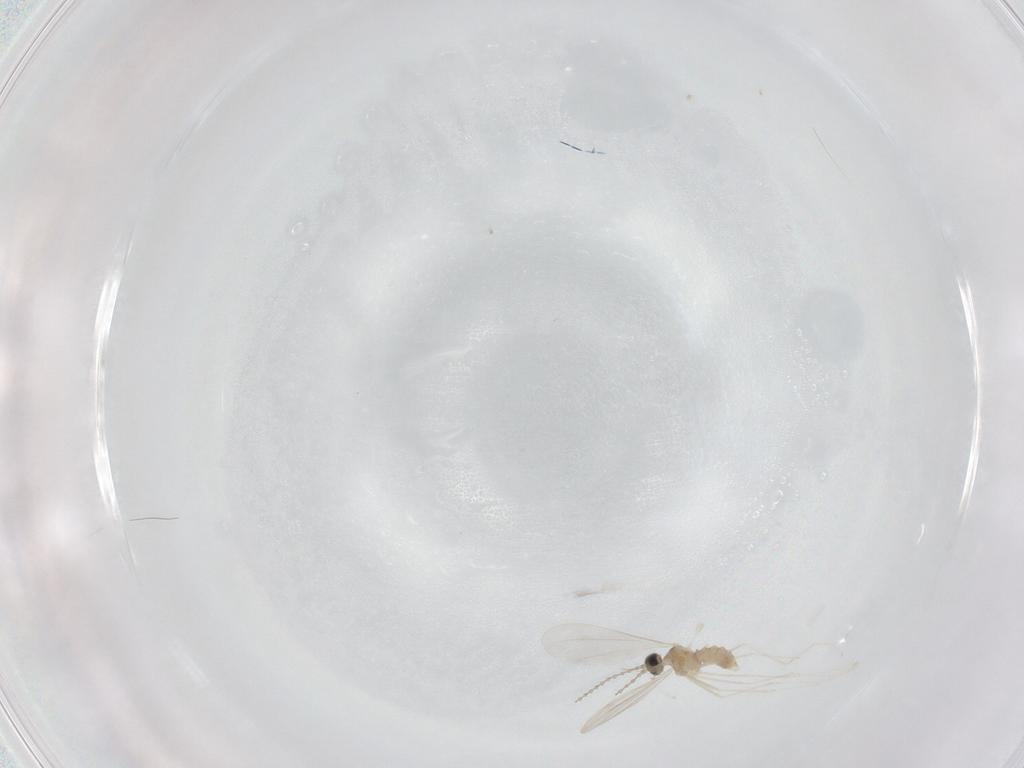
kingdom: Animalia
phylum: Arthropoda
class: Insecta
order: Diptera
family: Cecidomyiidae
